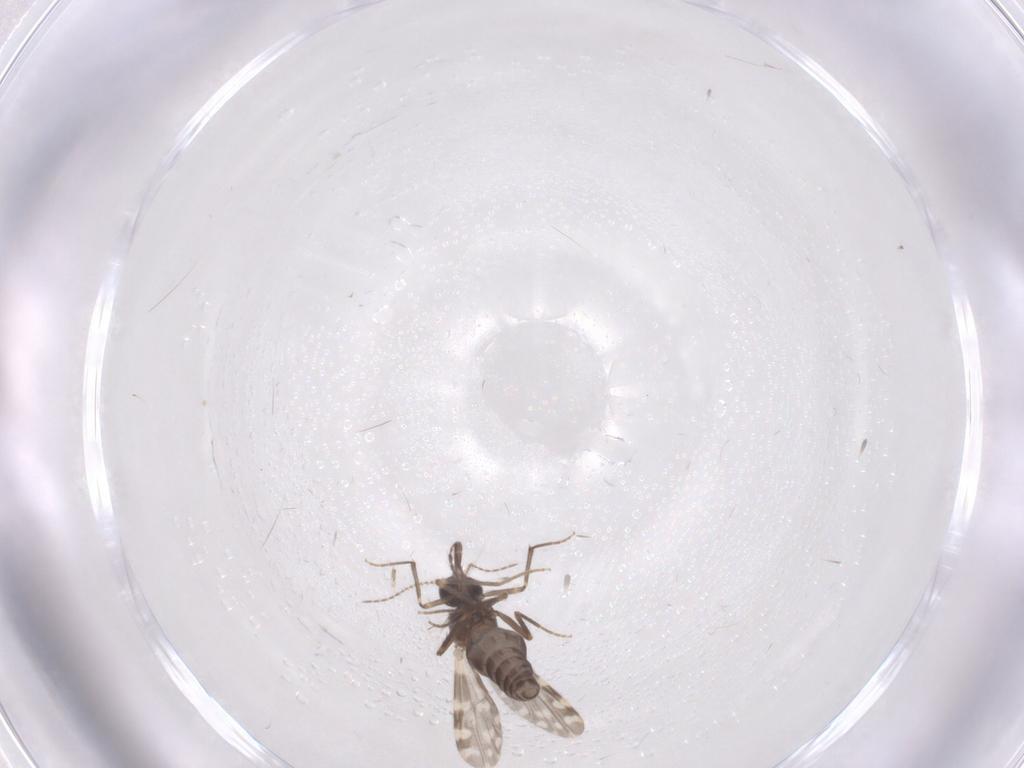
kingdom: Animalia
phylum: Arthropoda
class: Insecta
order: Diptera
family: Ceratopogonidae
